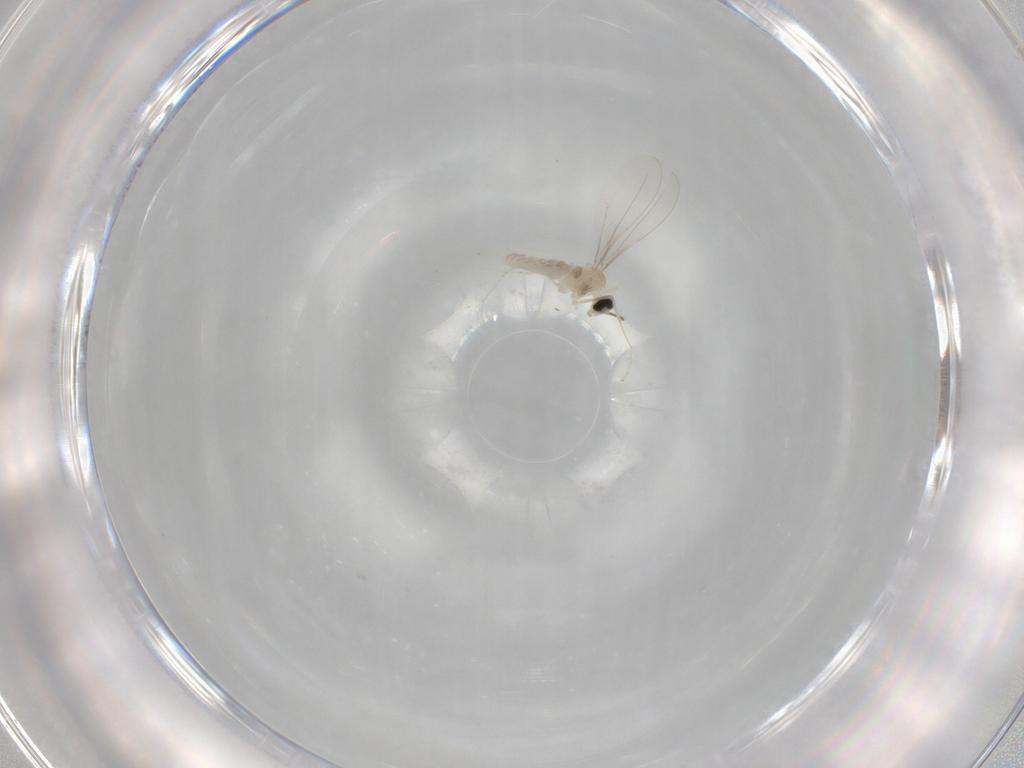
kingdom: Animalia
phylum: Arthropoda
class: Insecta
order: Diptera
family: Cecidomyiidae
